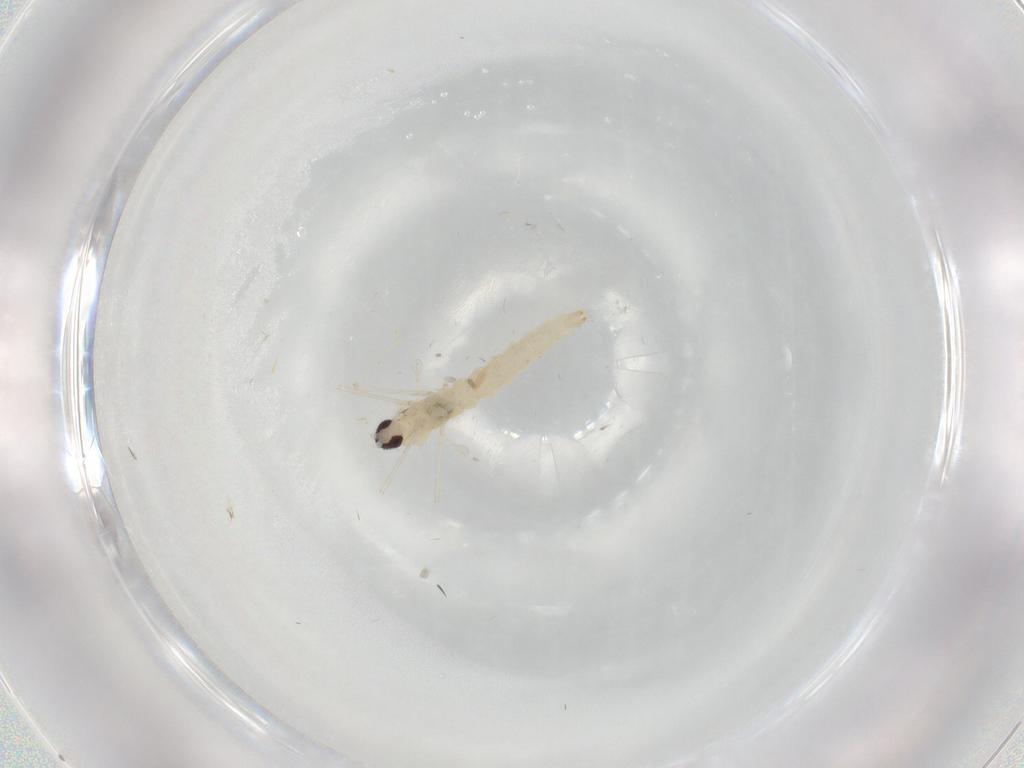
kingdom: Animalia
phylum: Arthropoda
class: Insecta
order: Diptera
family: Cecidomyiidae
